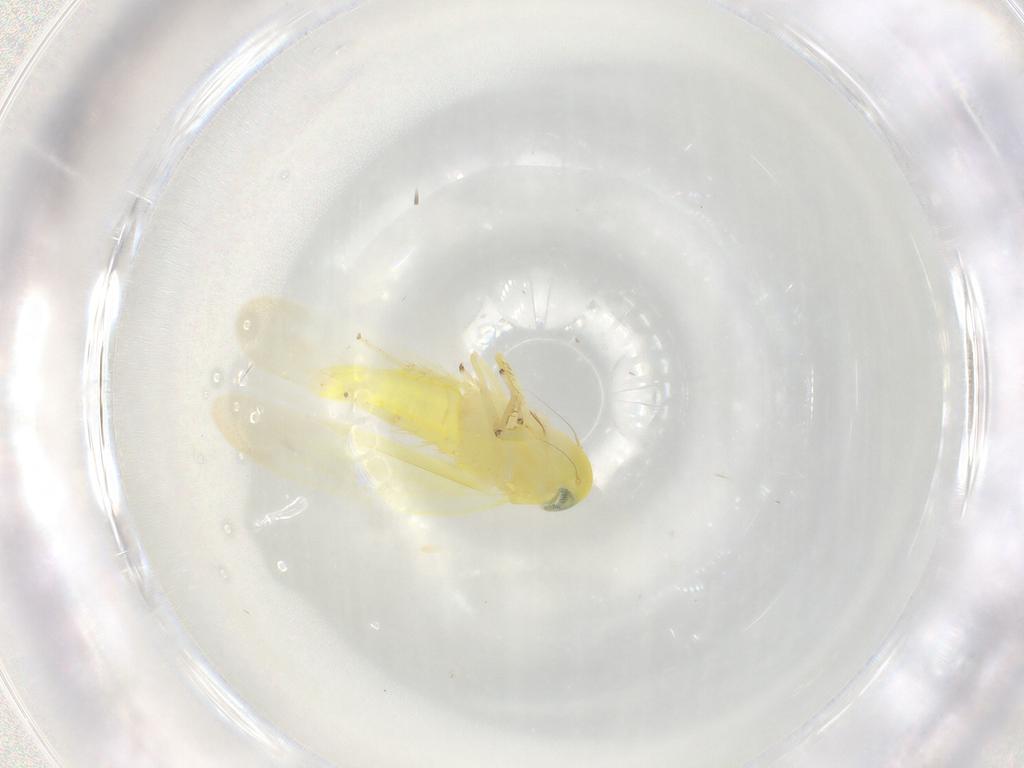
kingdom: Animalia
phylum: Arthropoda
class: Insecta
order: Hemiptera
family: Cicadellidae
